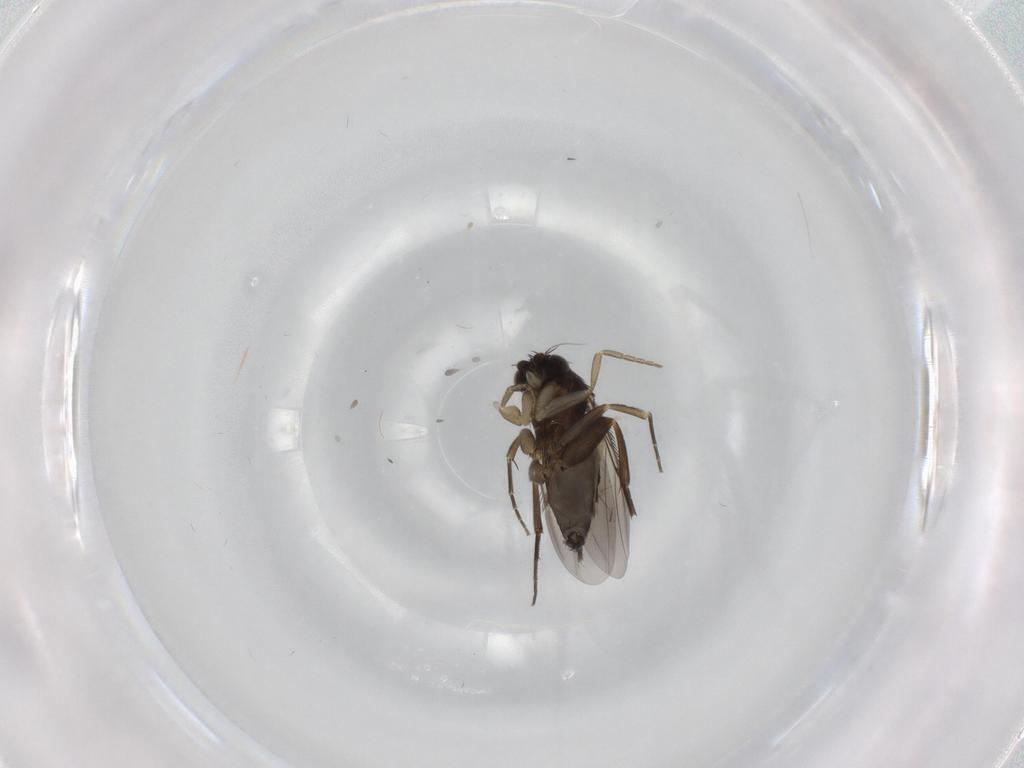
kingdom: Animalia
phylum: Arthropoda
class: Insecta
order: Diptera
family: Phoridae
